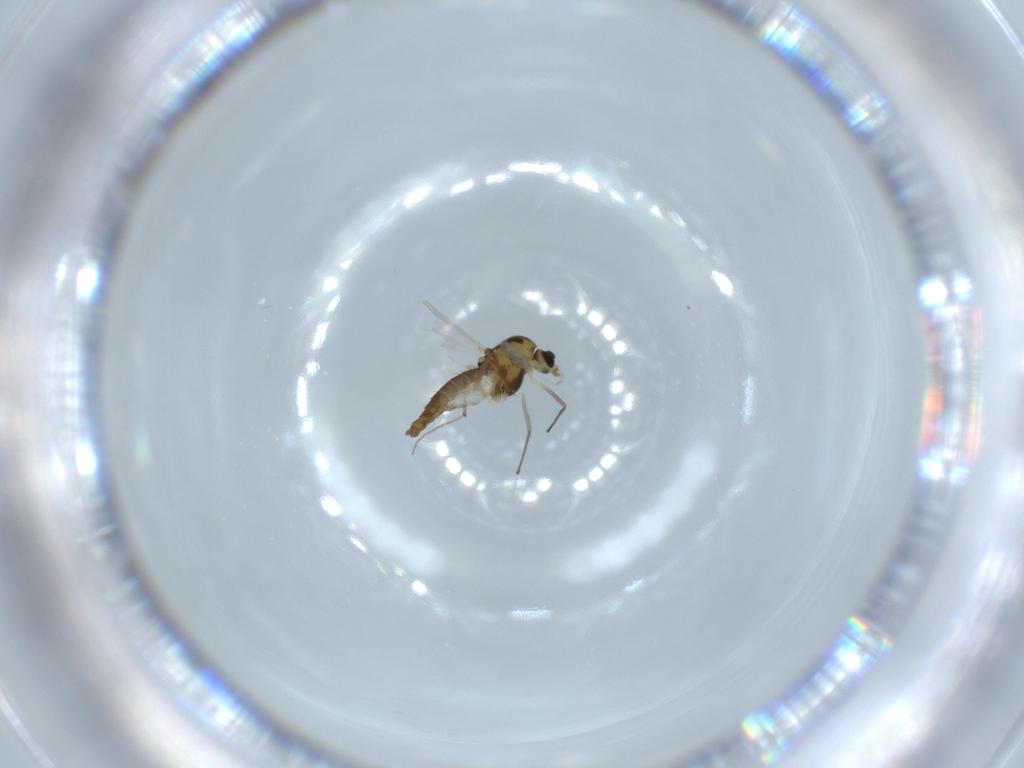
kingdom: Animalia
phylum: Arthropoda
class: Insecta
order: Diptera
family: Chironomidae
